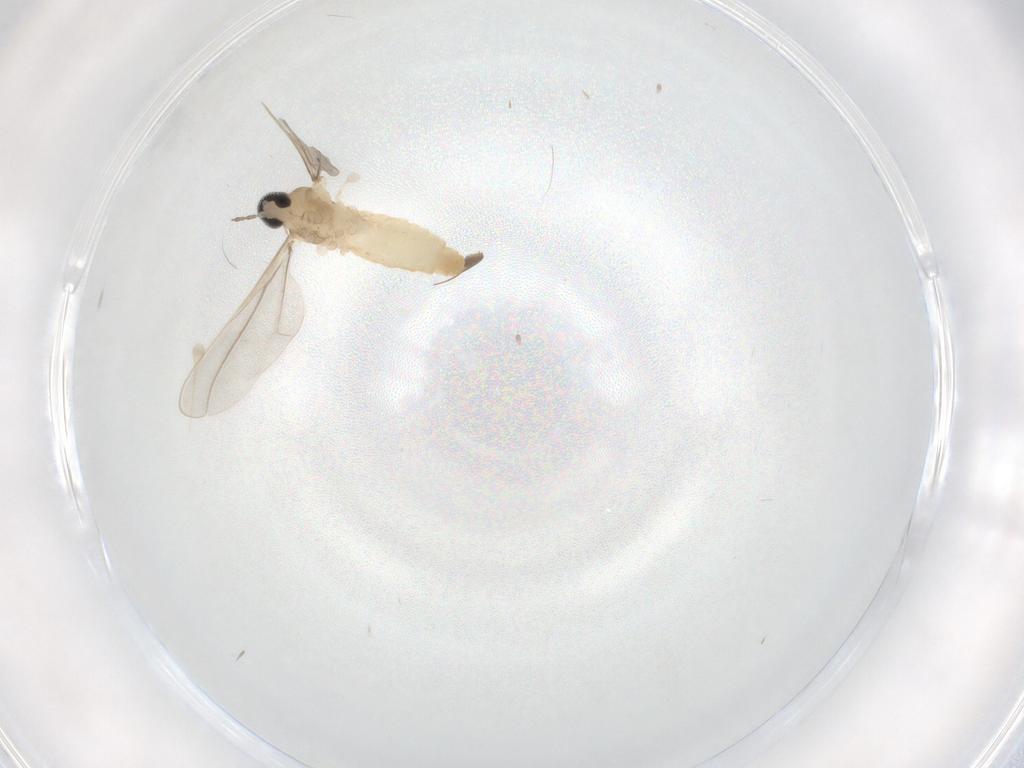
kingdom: Animalia
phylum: Arthropoda
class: Insecta
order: Diptera
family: Cecidomyiidae
